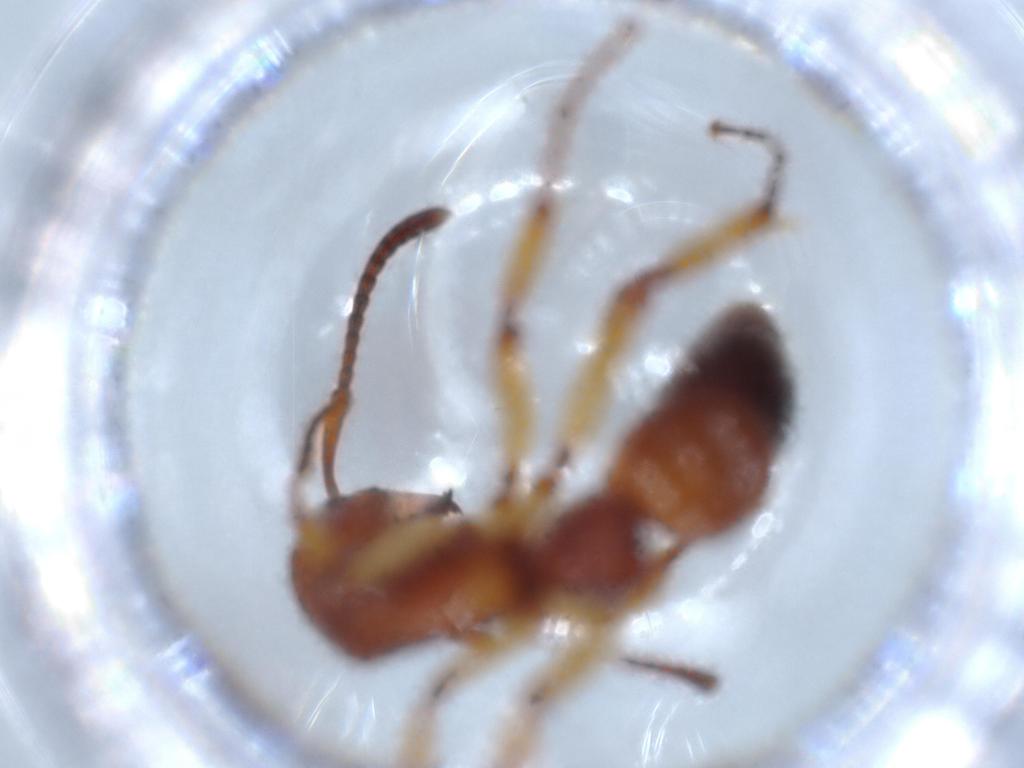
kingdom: Animalia
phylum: Arthropoda
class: Insecta
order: Hymenoptera
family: Formicidae
